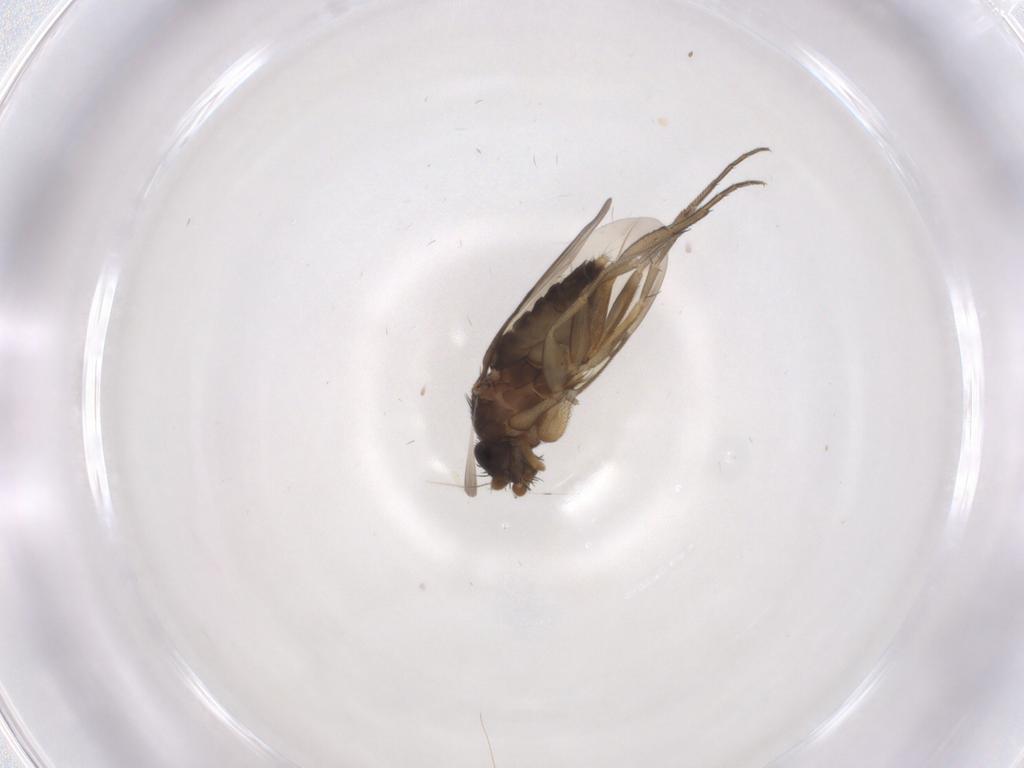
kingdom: Animalia
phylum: Arthropoda
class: Insecta
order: Diptera
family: Phoridae
